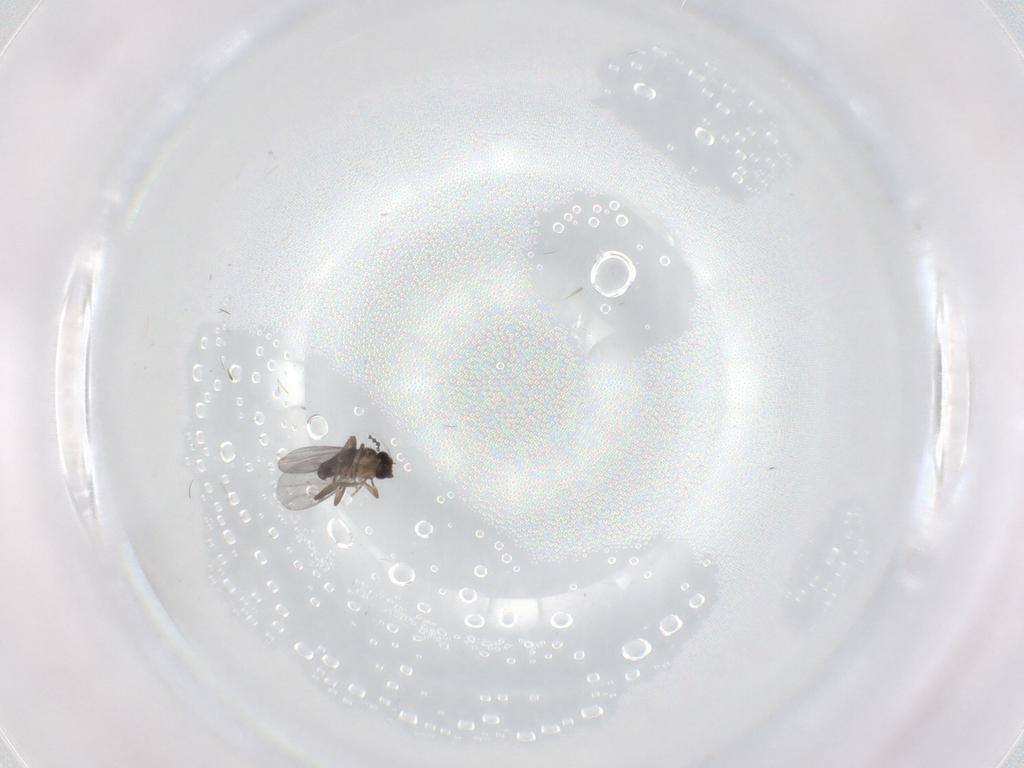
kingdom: Animalia
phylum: Arthropoda
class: Insecta
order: Diptera
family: Cecidomyiidae
